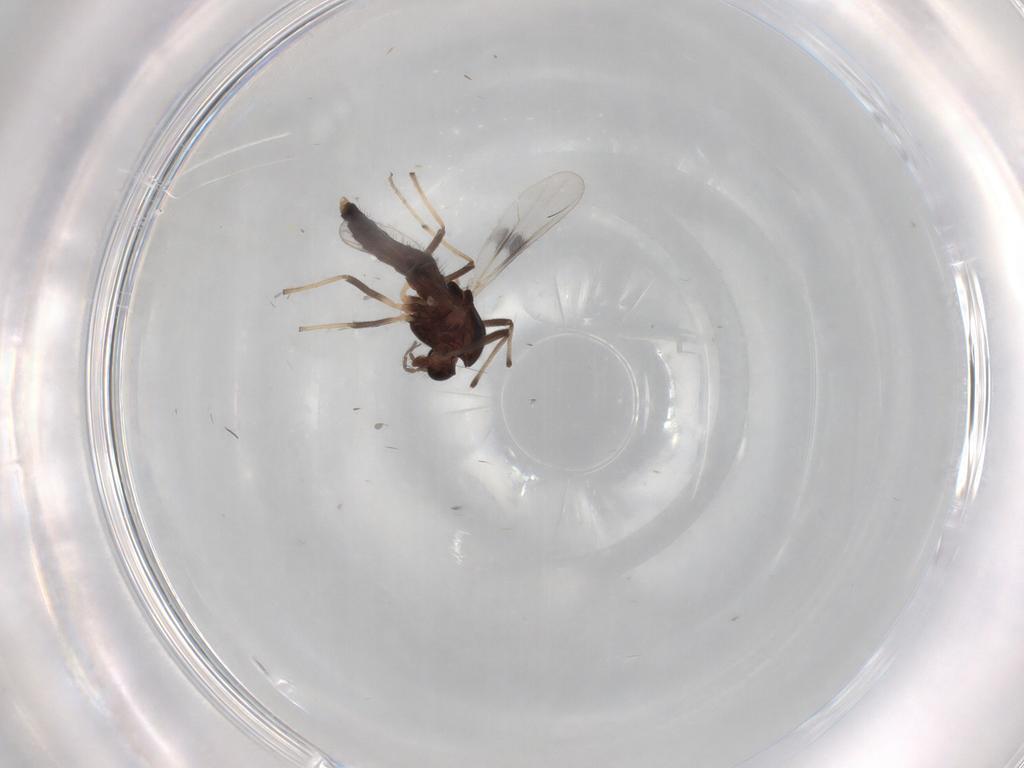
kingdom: Animalia
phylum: Arthropoda
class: Insecta
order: Diptera
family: Chironomidae
